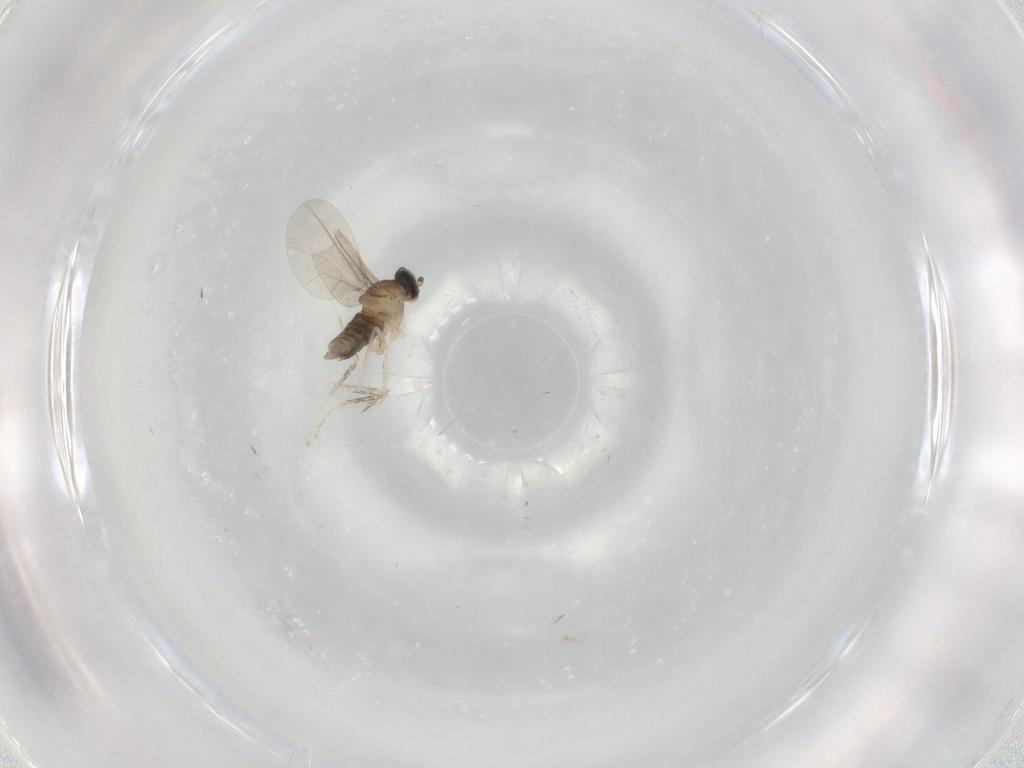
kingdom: Animalia
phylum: Arthropoda
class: Insecta
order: Diptera
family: Cecidomyiidae
